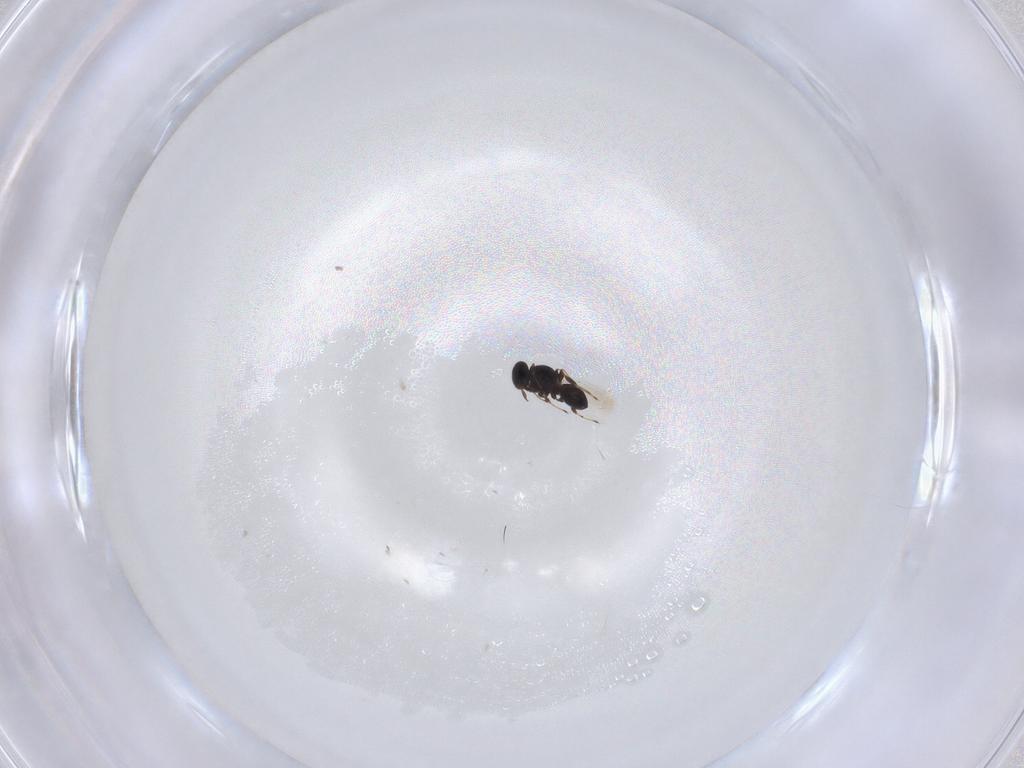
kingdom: Animalia
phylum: Arthropoda
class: Insecta
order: Hymenoptera
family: Platygastridae
